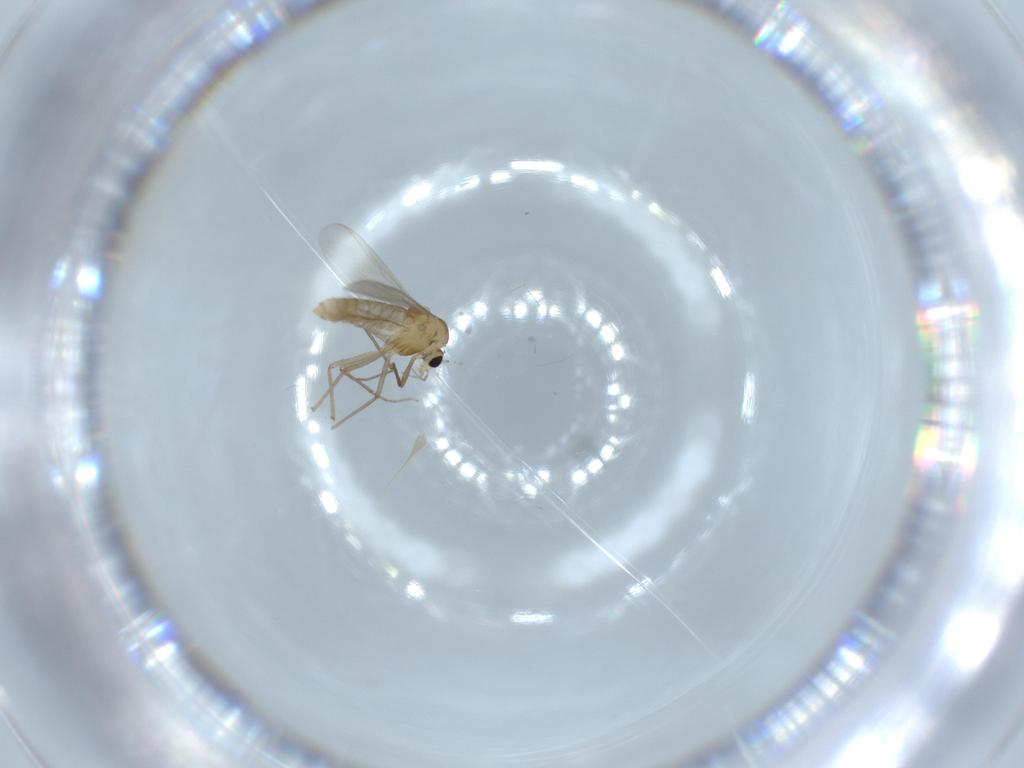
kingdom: Animalia
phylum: Arthropoda
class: Insecta
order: Diptera
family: Chironomidae
